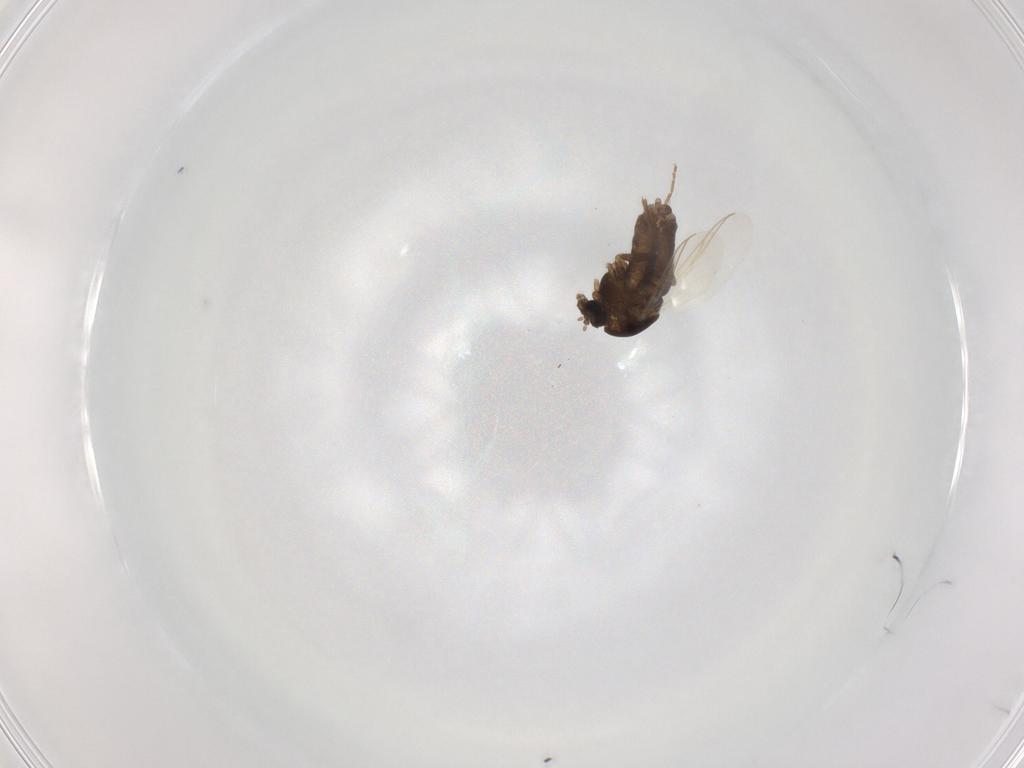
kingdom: Animalia
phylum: Arthropoda
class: Insecta
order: Diptera
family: Chironomidae
